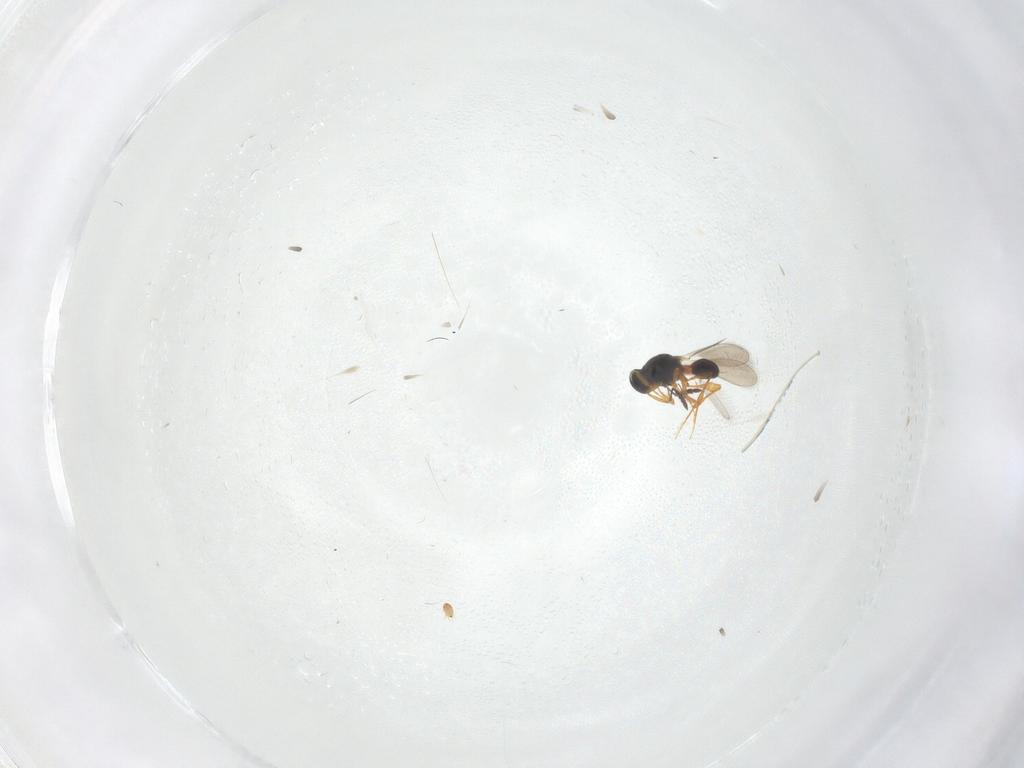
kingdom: Animalia
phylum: Arthropoda
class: Insecta
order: Hymenoptera
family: Platygastridae
